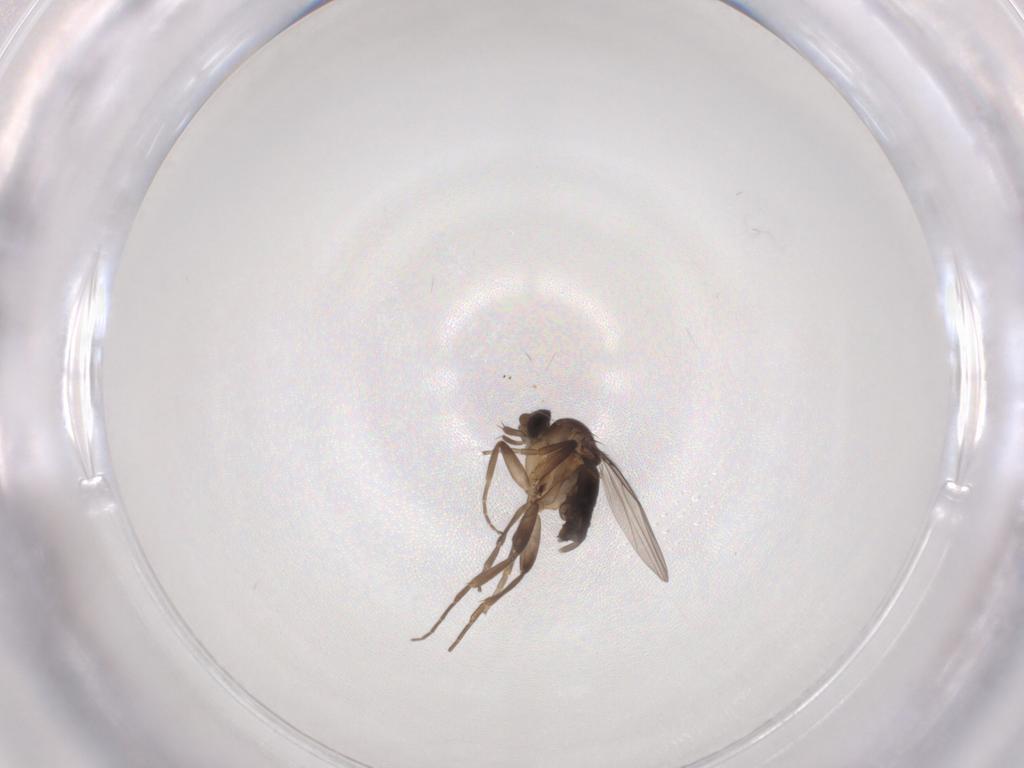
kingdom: Animalia
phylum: Arthropoda
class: Insecta
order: Diptera
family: Phoridae
